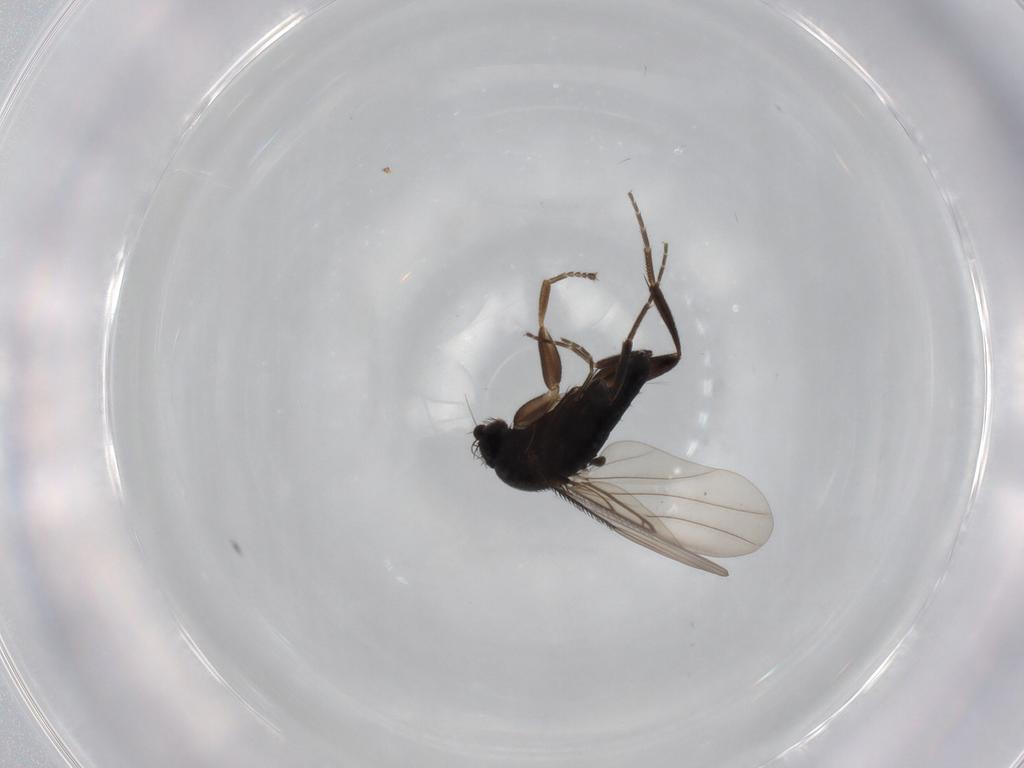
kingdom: Animalia
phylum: Arthropoda
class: Insecta
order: Diptera
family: Phoridae
